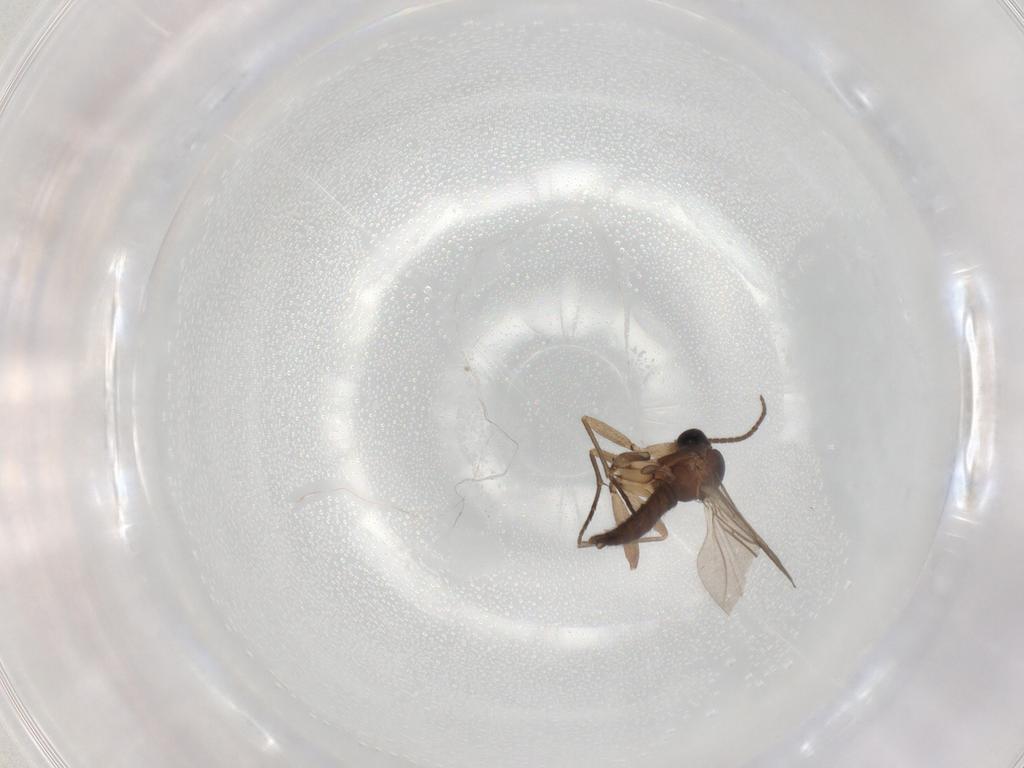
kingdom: Animalia
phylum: Arthropoda
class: Insecta
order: Diptera
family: Sciaridae
